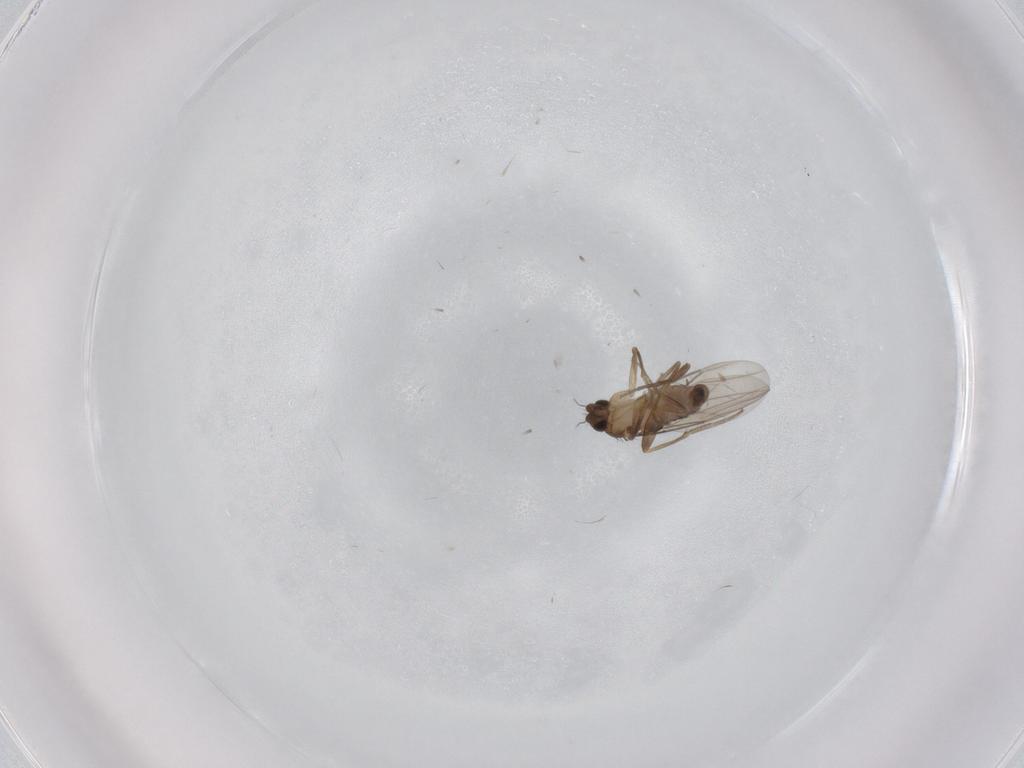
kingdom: Animalia
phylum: Arthropoda
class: Insecta
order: Diptera
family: Phoridae
